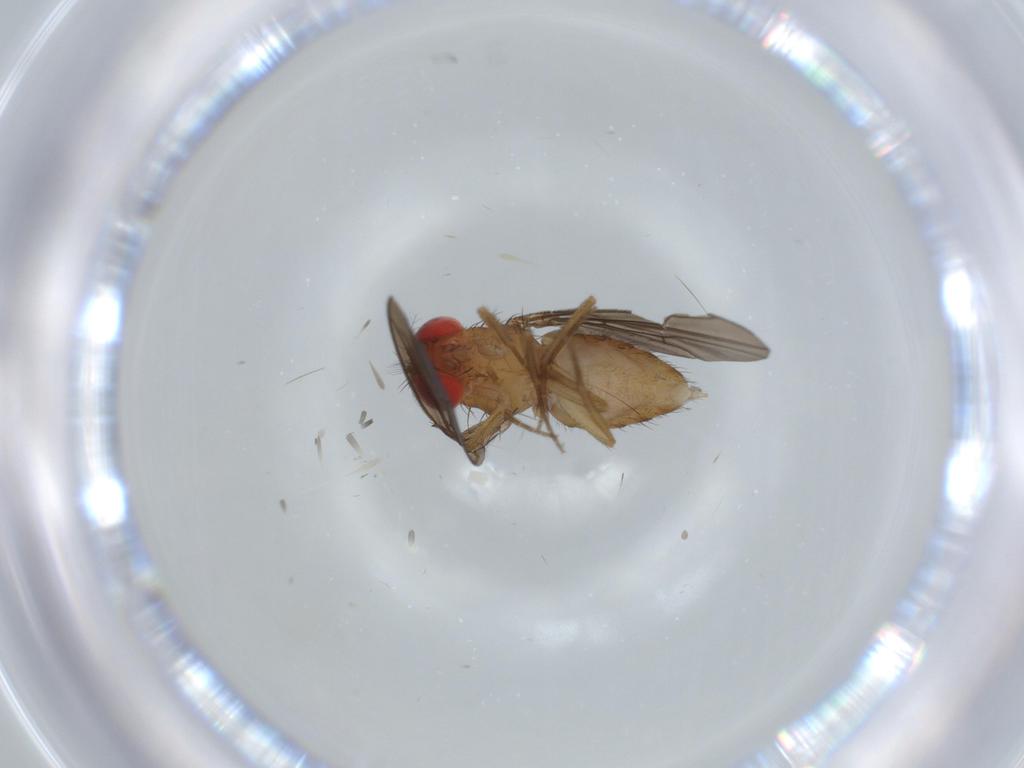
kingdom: Animalia
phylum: Arthropoda
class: Insecta
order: Diptera
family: Drosophilidae
